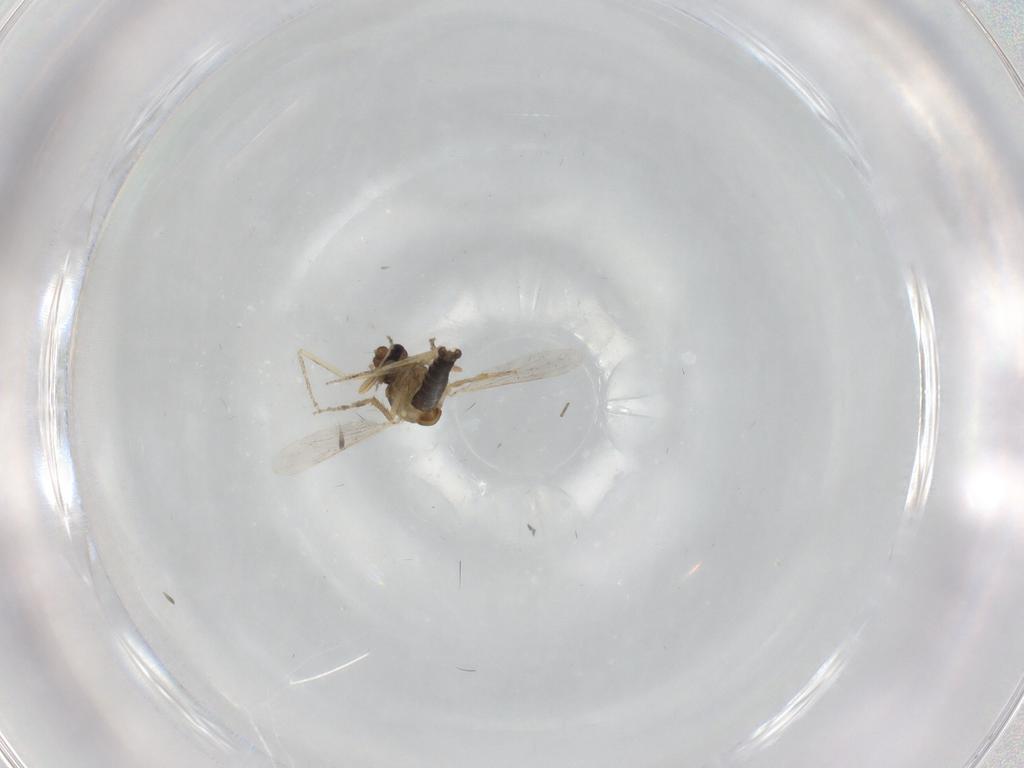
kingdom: Animalia
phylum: Arthropoda
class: Insecta
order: Diptera
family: Ceratopogonidae
